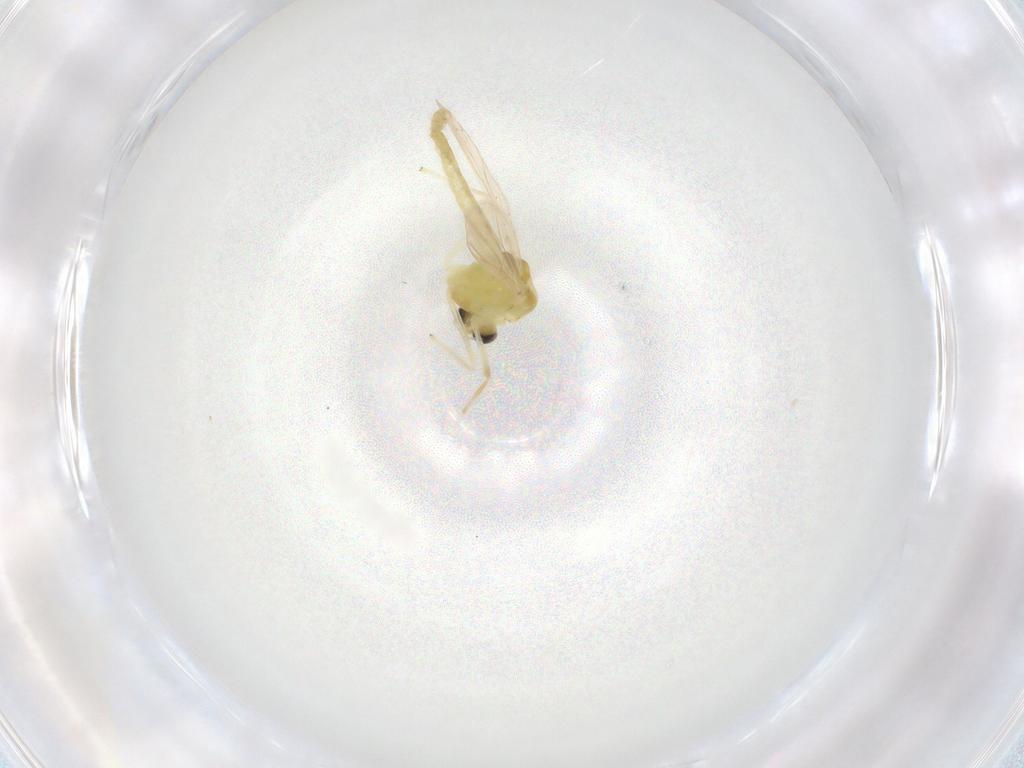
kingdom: Animalia
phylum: Arthropoda
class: Insecta
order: Diptera
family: Chironomidae
